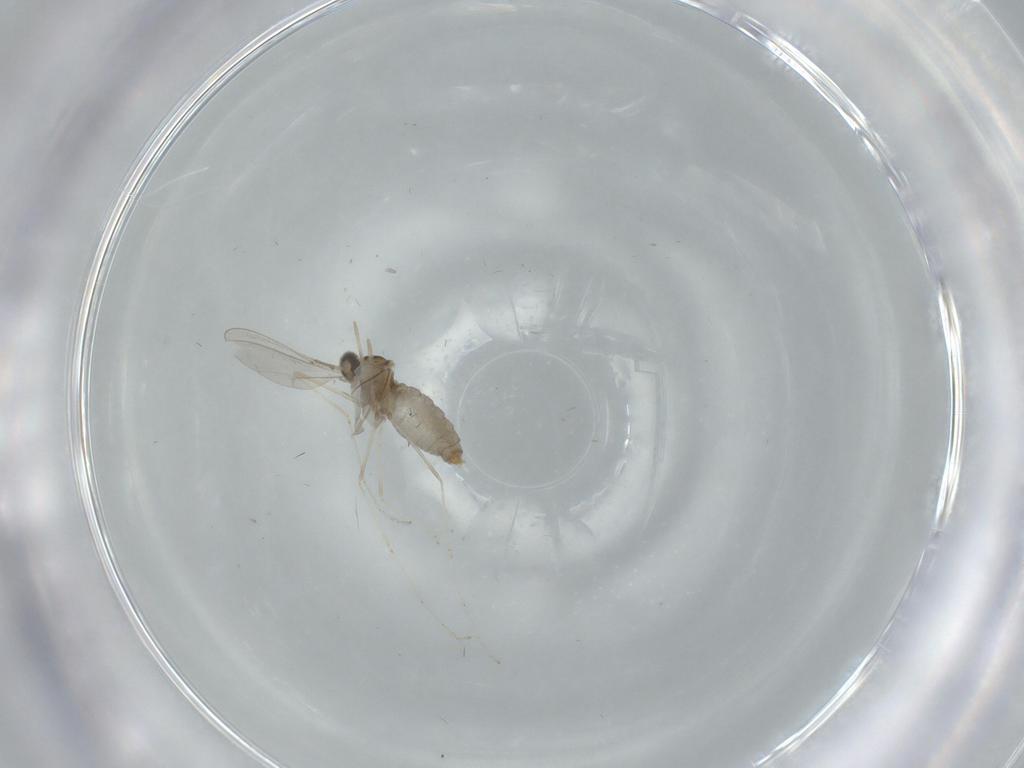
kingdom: Animalia
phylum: Arthropoda
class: Insecta
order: Diptera
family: Cecidomyiidae
